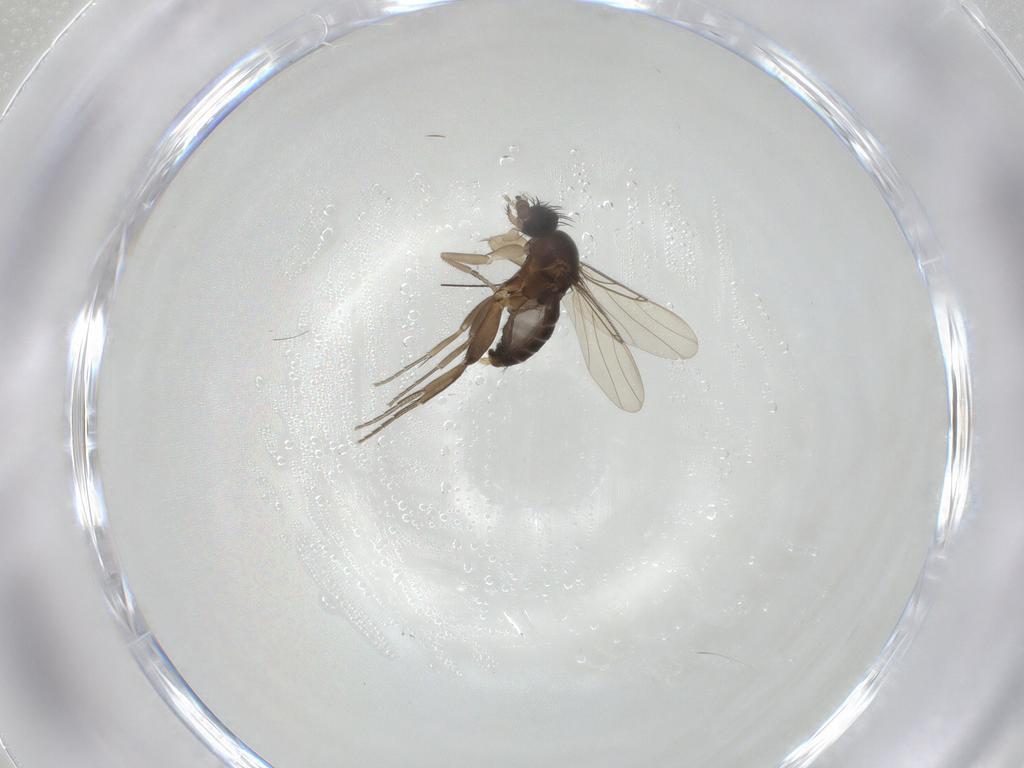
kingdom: Animalia
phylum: Arthropoda
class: Insecta
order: Diptera
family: Phoridae
